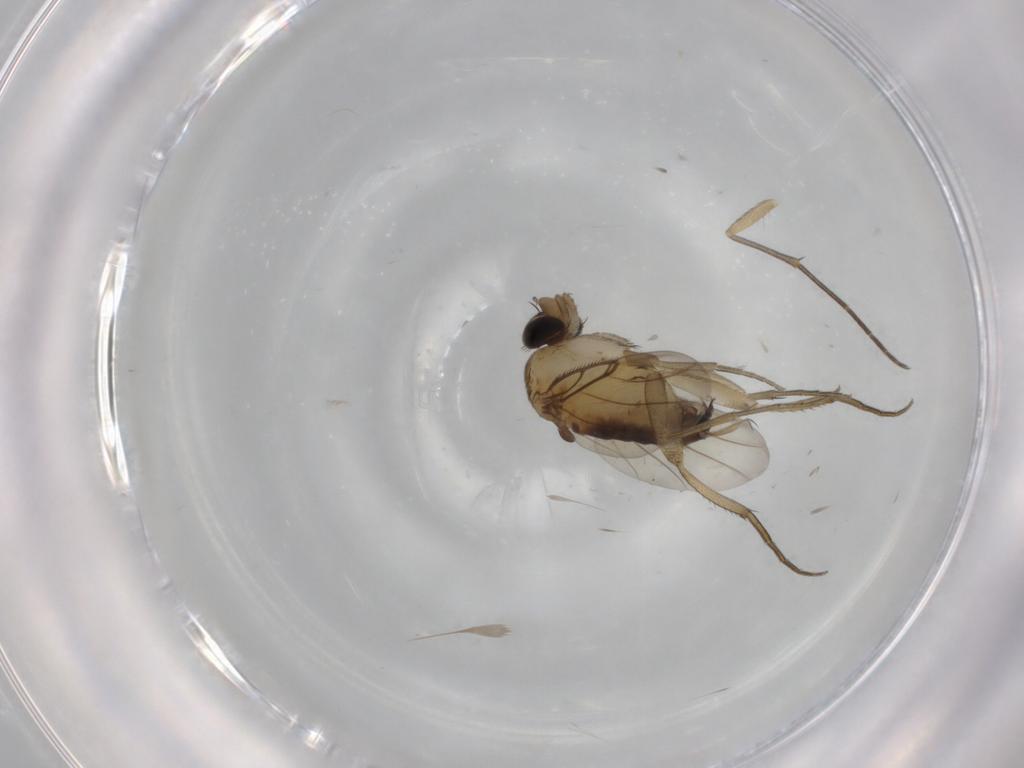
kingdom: Animalia
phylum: Arthropoda
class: Insecta
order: Diptera
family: Phoridae
